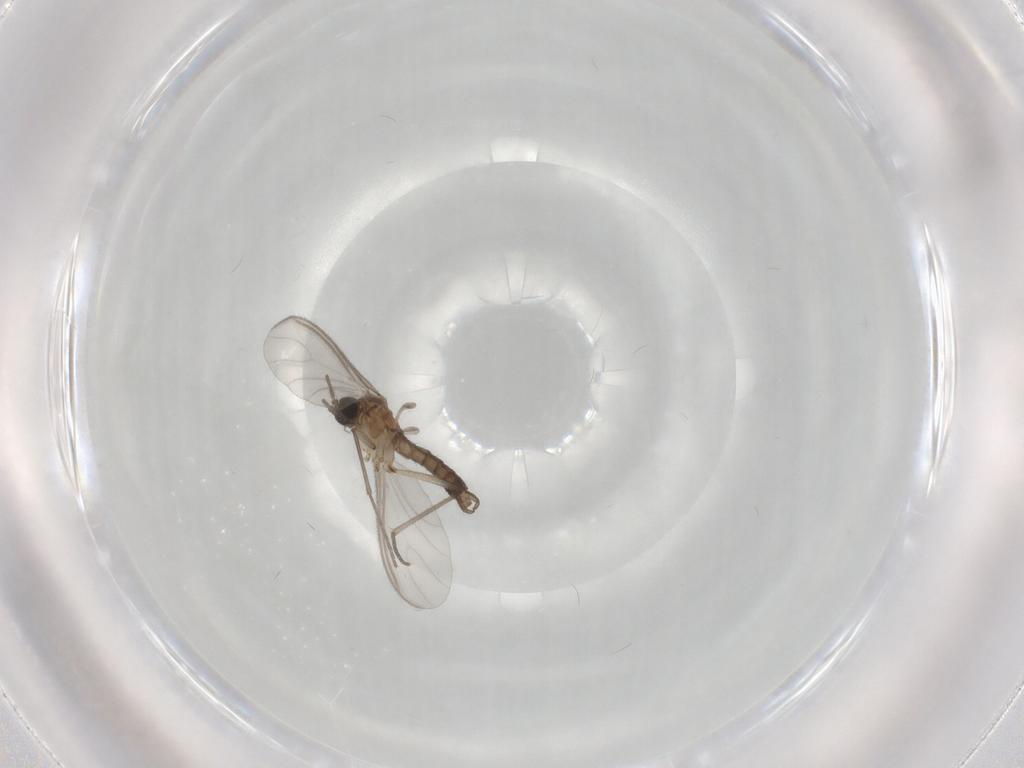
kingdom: Animalia
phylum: Arthropoda
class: Insecta
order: Diptera
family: Sciaridae
